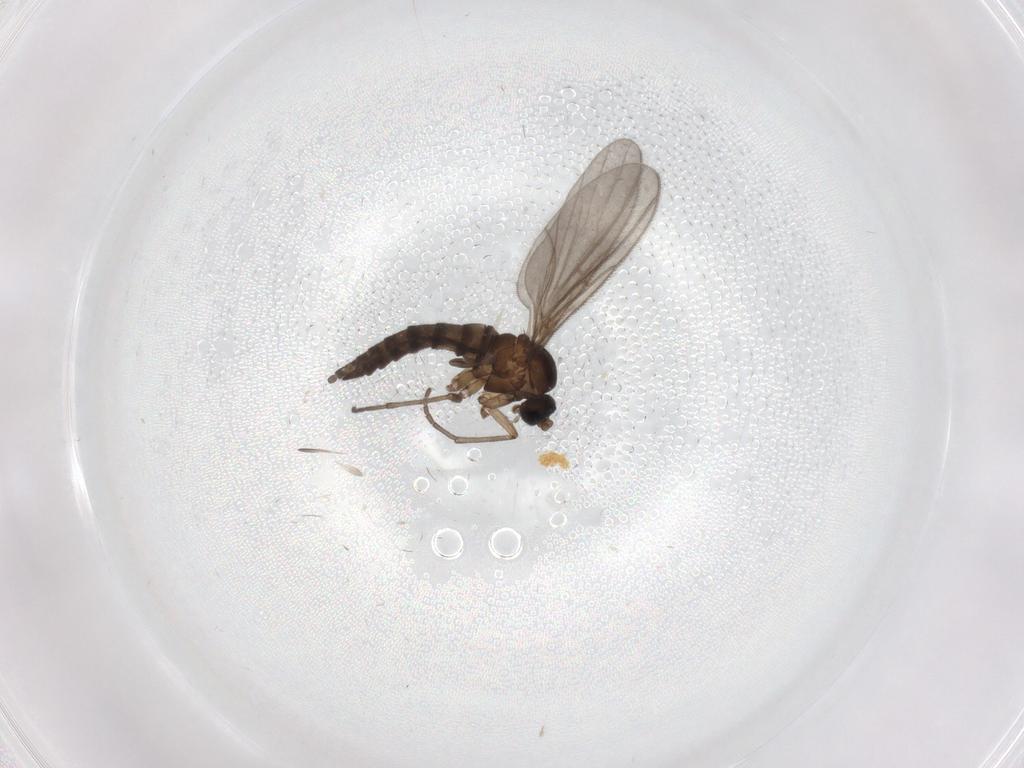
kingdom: Animalia
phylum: Arthropoda
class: Insecta
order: Diptera
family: Sciaridae
